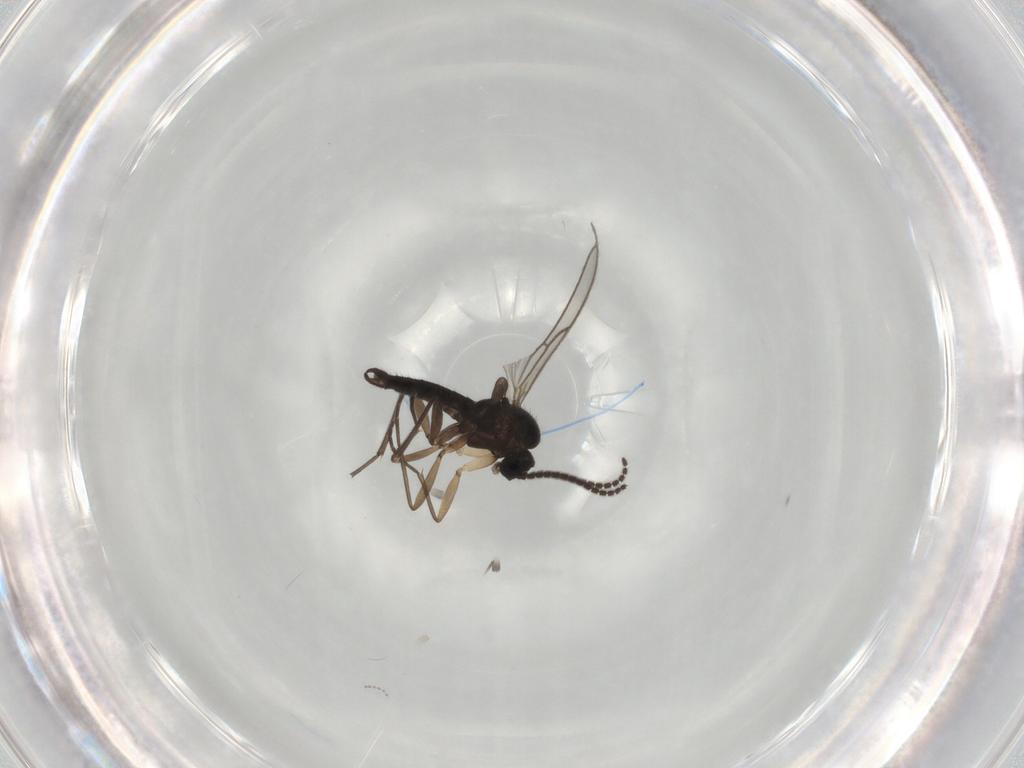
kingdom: Animalia
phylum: Arthropoda
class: Insecta
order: Diptera
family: Sciaridae
